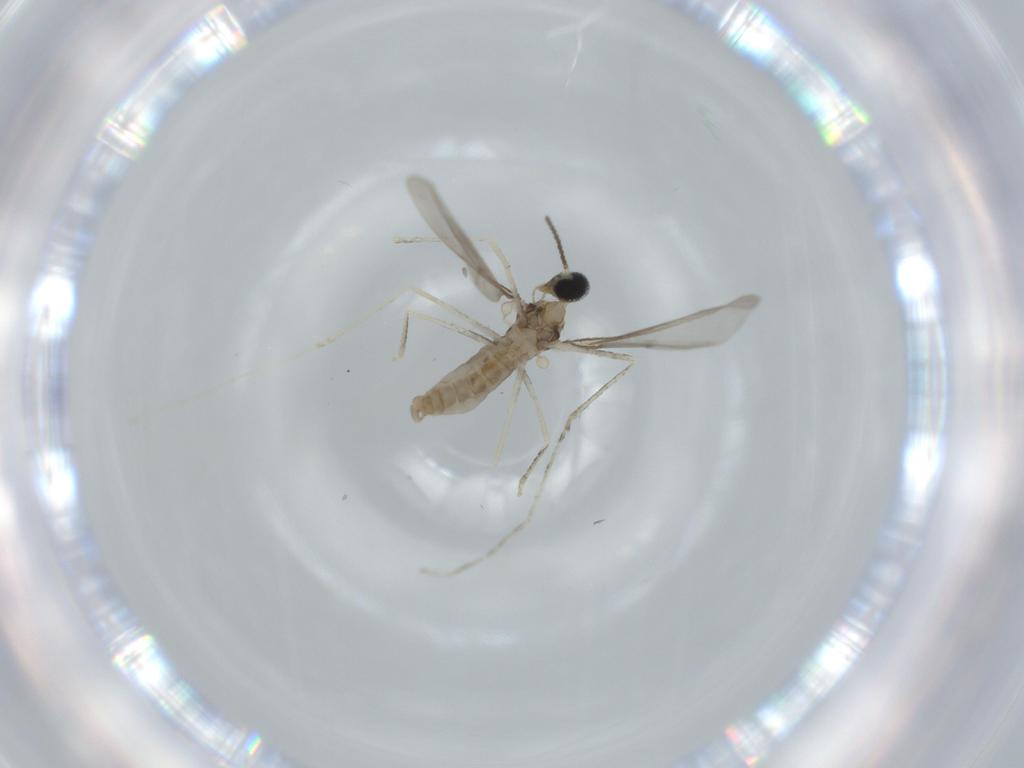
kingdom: Animalia
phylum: Arthropoda
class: Insecta
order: Diptera
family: Cecidomyiidae
